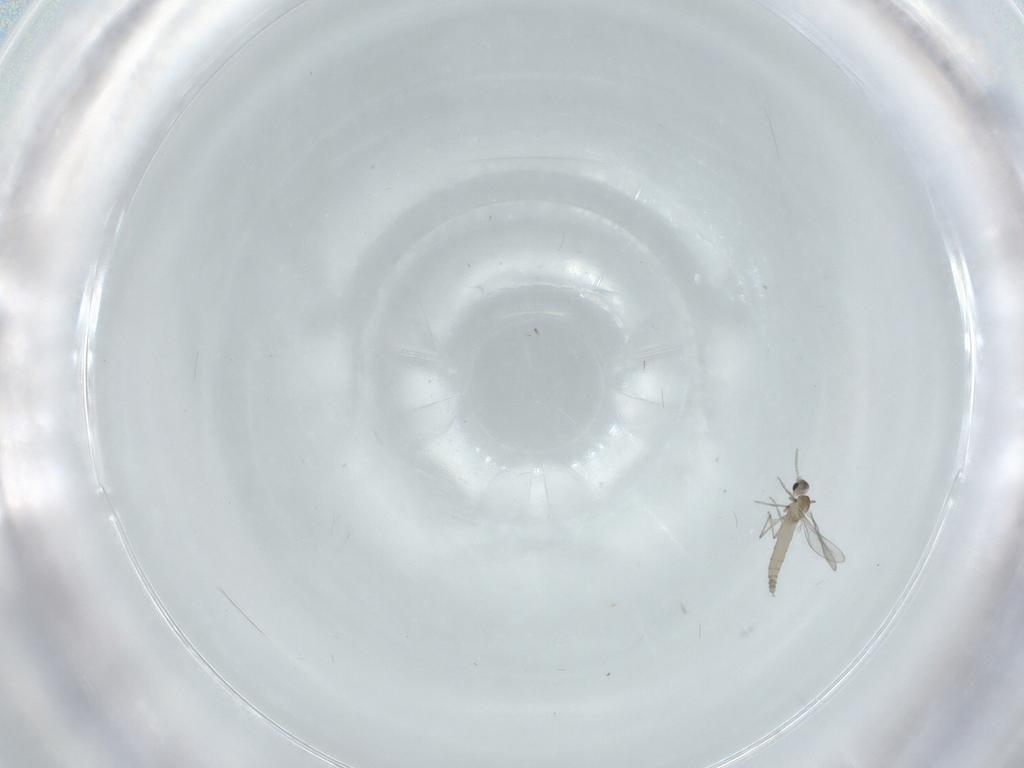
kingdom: Animalia
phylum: Arthropoda
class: Insecta
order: Diptera
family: Cecidomyiidae
